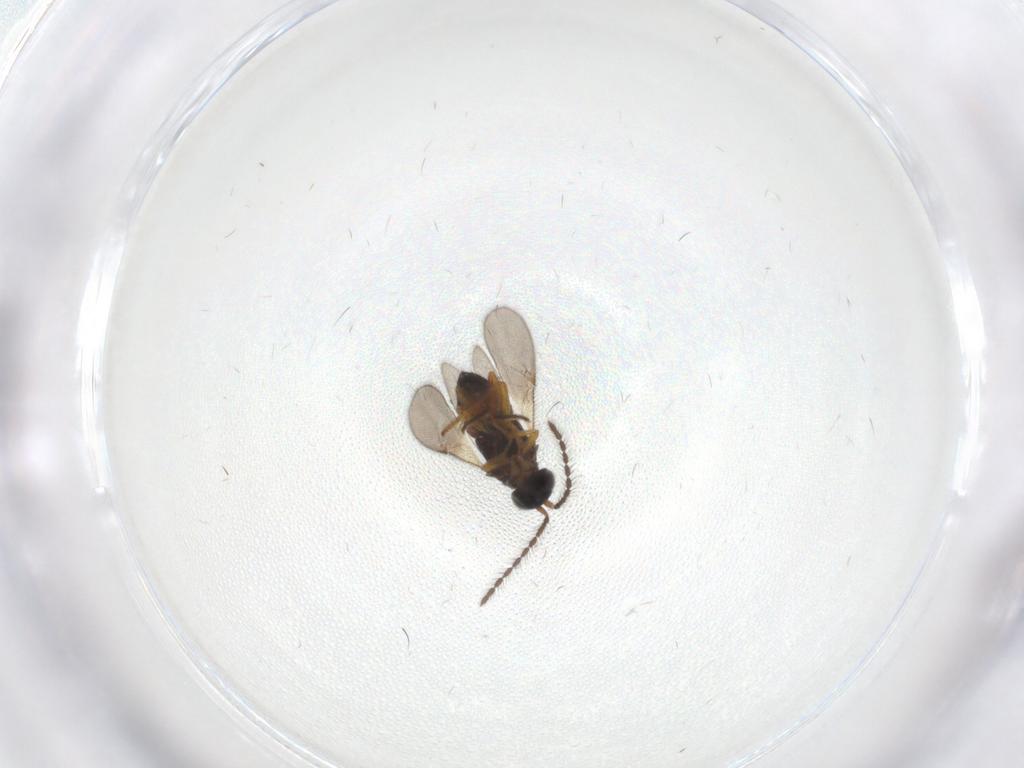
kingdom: Animalia
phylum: Arthropoda
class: Insecta
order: Hymenoptera
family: Encyrtidae
